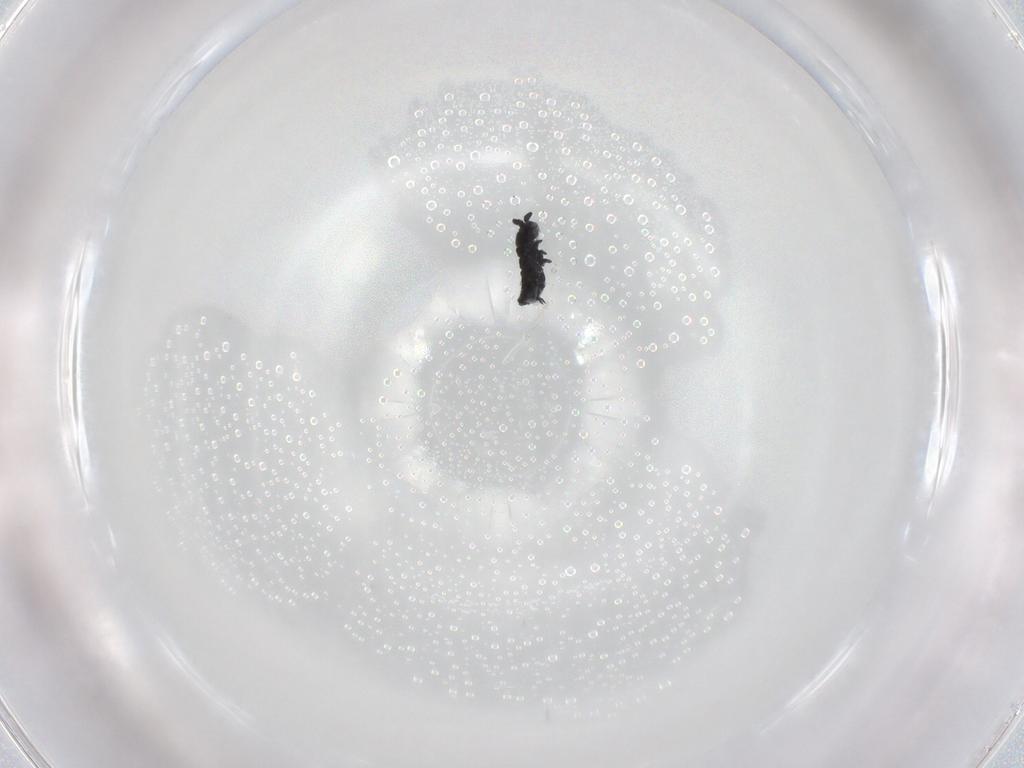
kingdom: Animalia
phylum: Arthropoda
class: Collembola
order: Poduromorpha
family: Hypogastruridae
